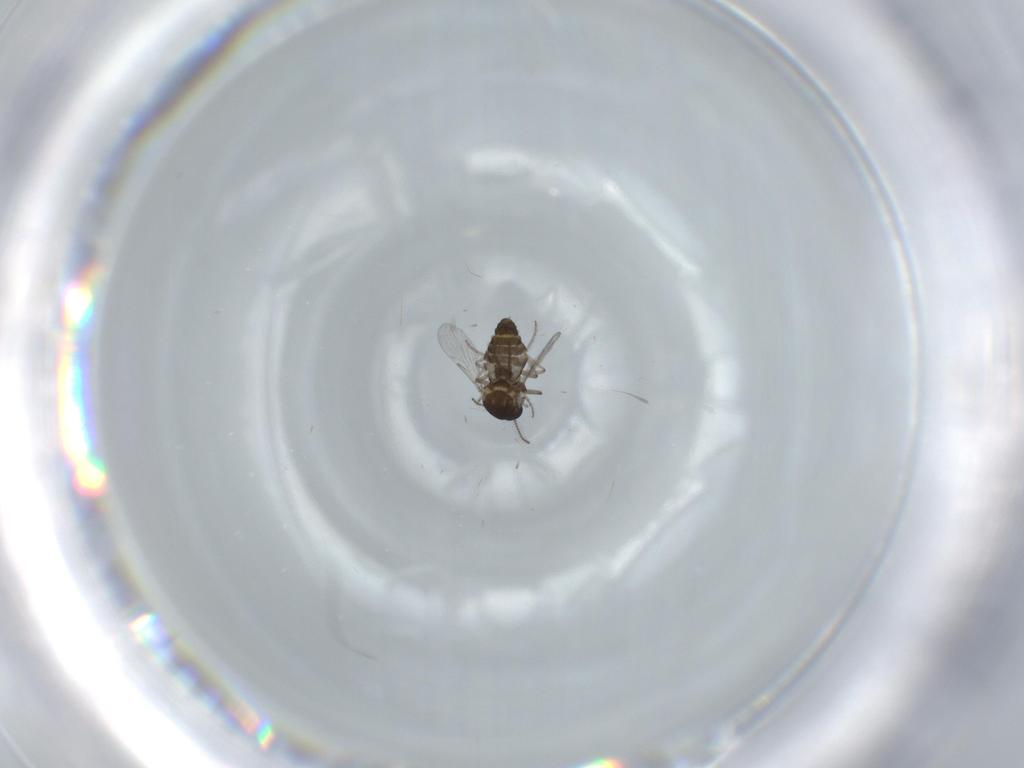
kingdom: Animalia
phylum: Arthropoda
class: Insecta
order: Diptera
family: Ceratopogonidae
